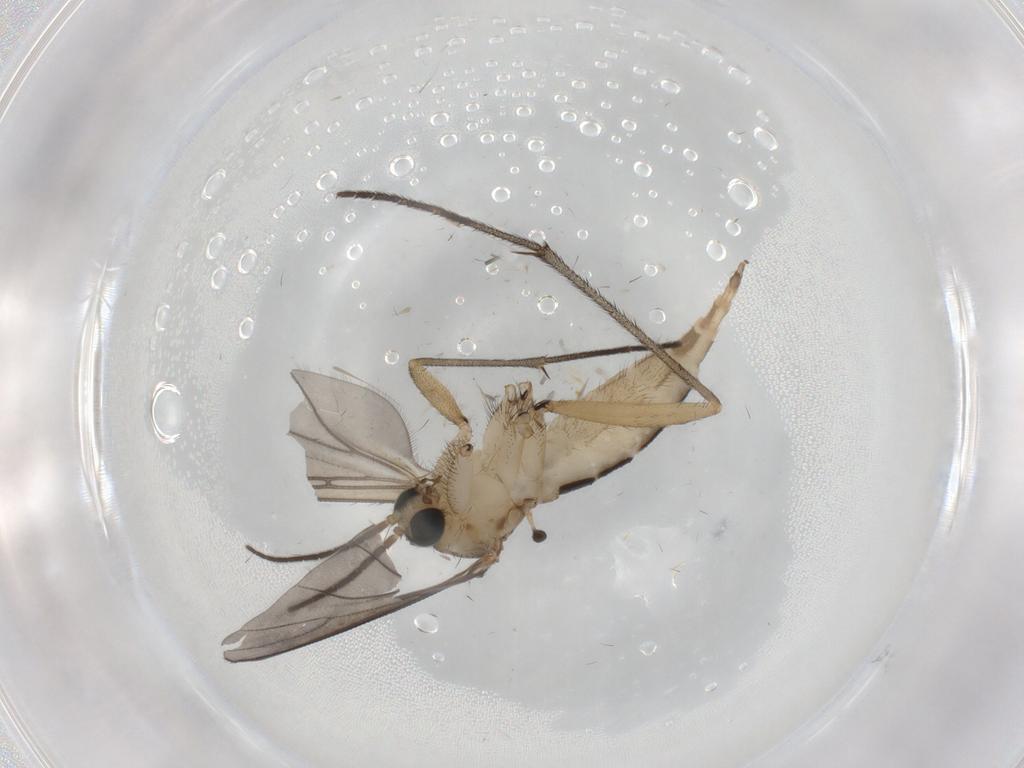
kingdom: Animalia
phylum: Arthropoda
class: Insecta
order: Diptera
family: Sciaridae
